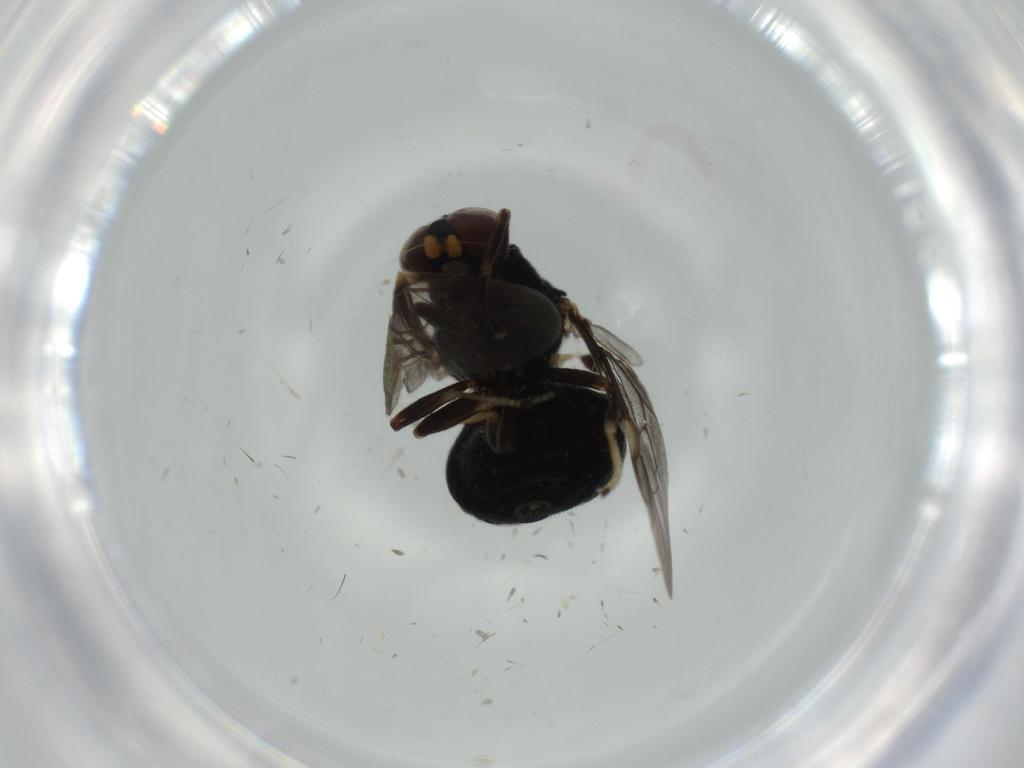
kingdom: Animalia
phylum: Arthropoda
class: Insecta
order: Diptera
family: Stratiomyidae
